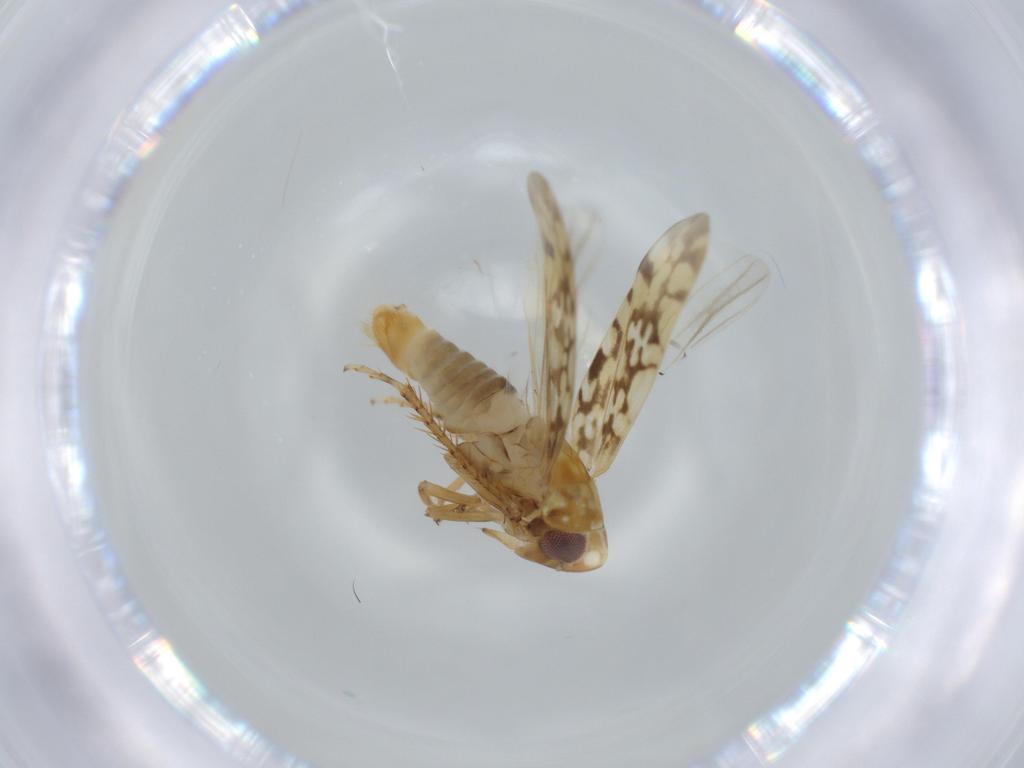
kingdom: Animalia
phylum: Arthropoda
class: Insecta
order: Hemiptera
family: Cicadellidae
